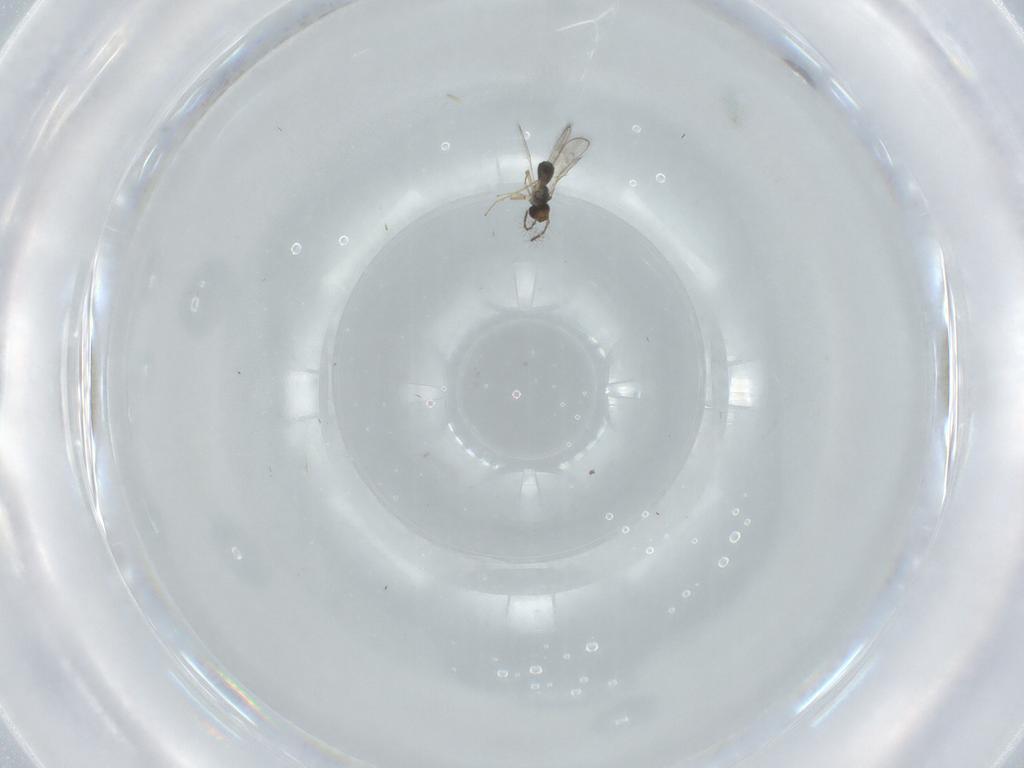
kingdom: Animalia
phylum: Arthropoda
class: Insecta
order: Hymenoptera
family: Pteromalidae
